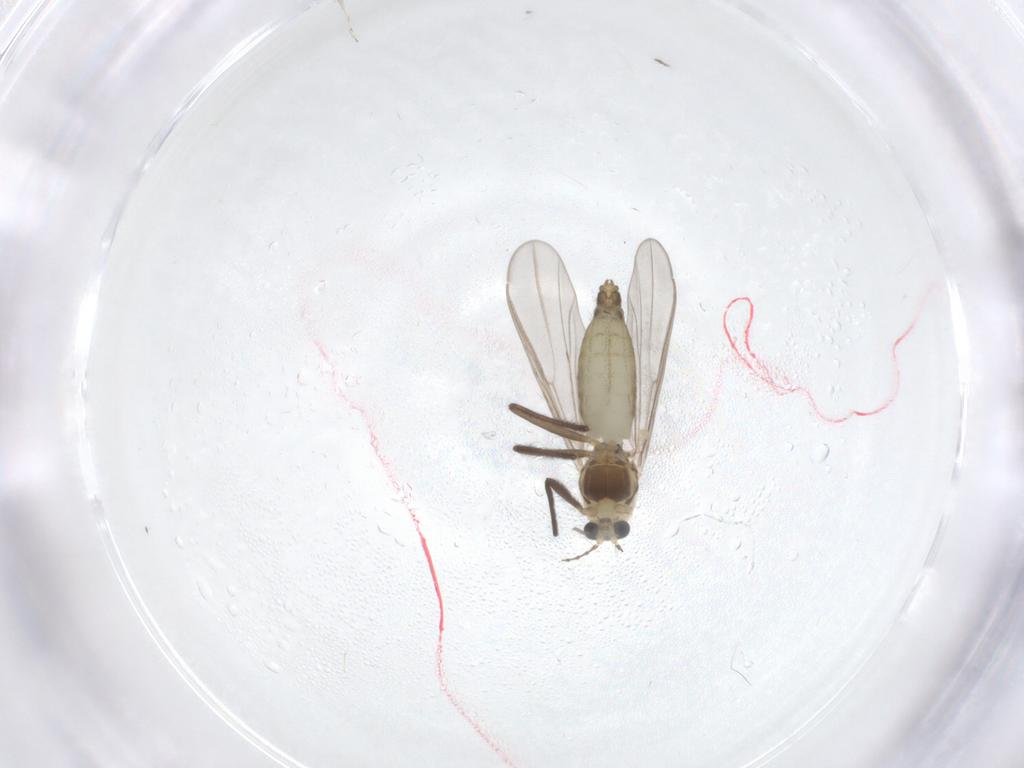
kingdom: Animalia
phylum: Arthropoda
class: Insecta
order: Diptera
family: Chironomidae
